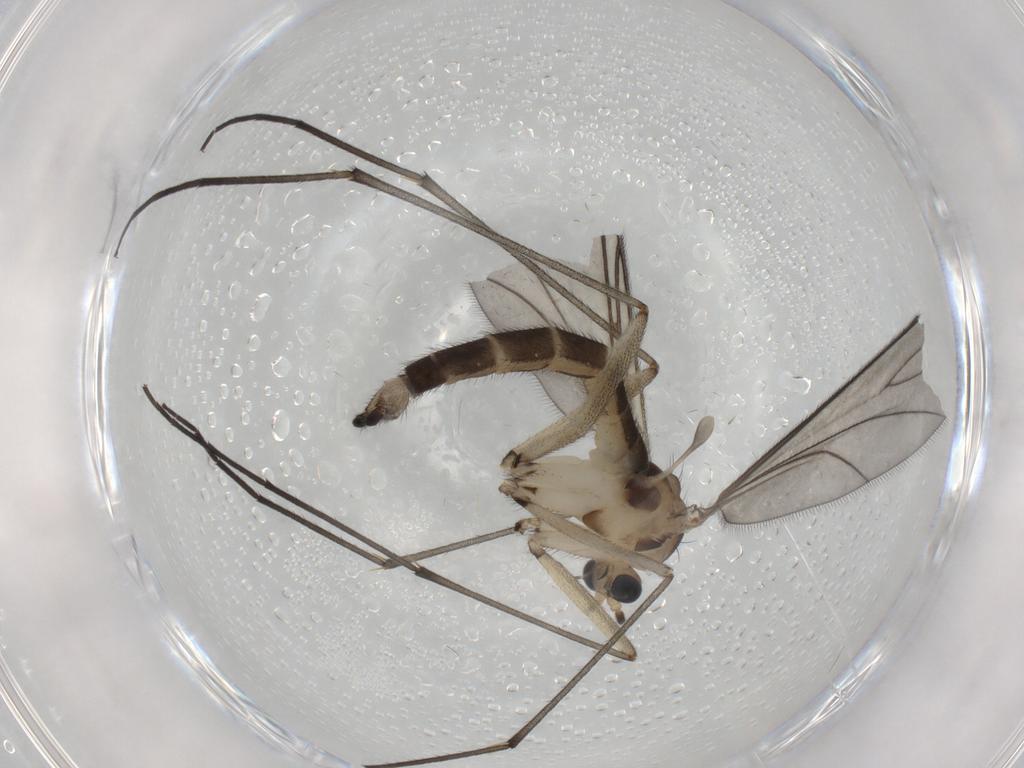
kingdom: Animalia
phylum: Arthropoda
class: Insecta
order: Diptera
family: Sciaridae
